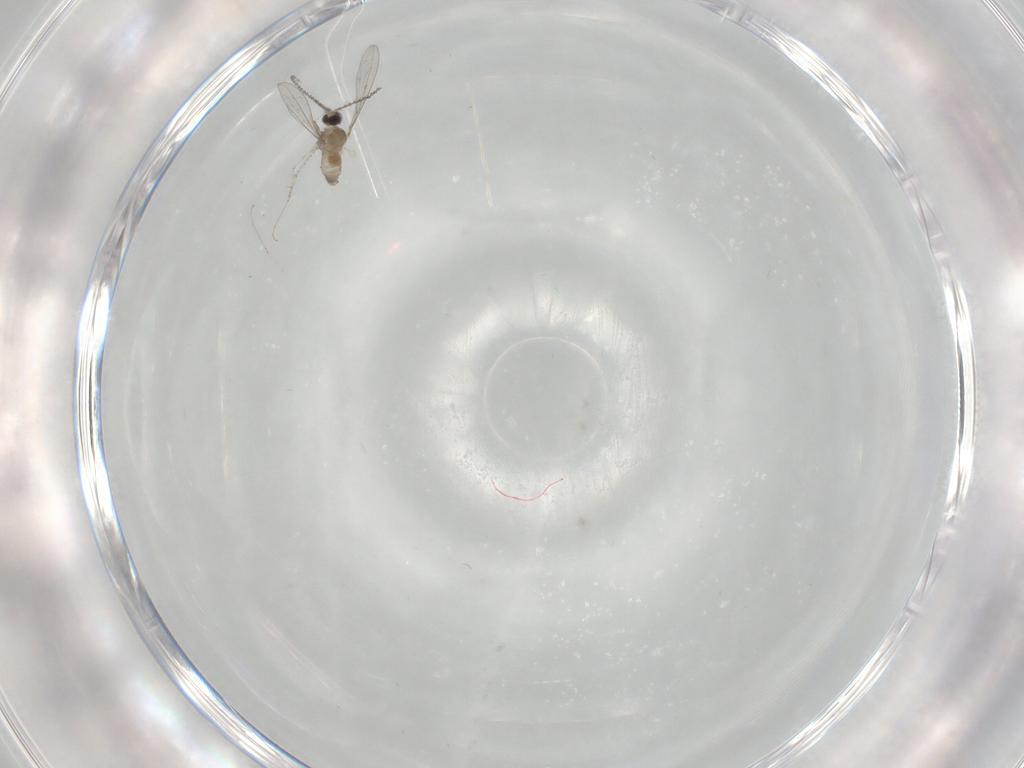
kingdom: Animalia
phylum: Arthropoda
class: Insecta
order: Diptera
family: Cecidomyiidae
